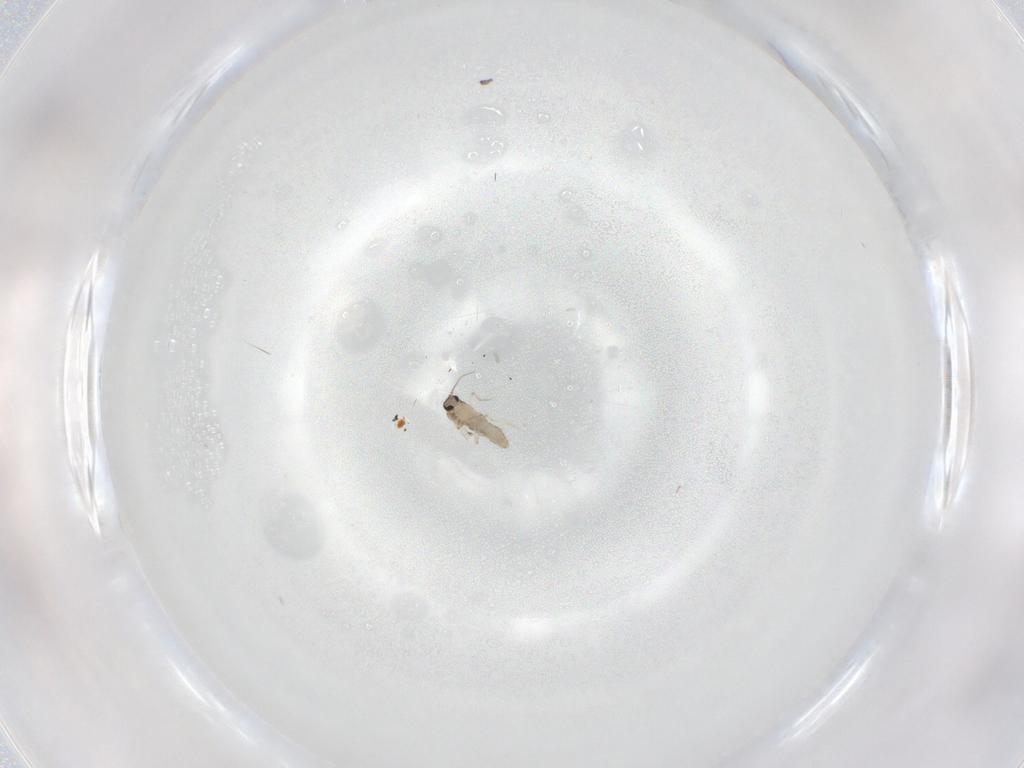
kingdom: Animalia
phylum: Arthropoda
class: Insecta
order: Diptera
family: Ceratopogonidae
